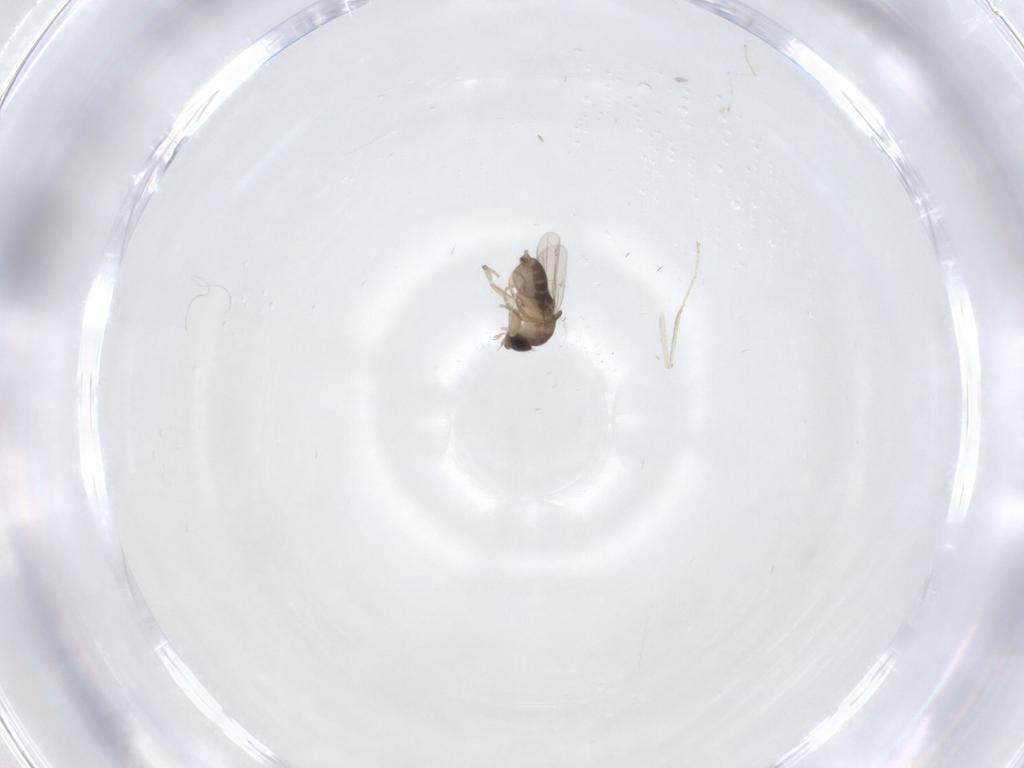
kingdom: Animalia
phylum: Arthropoda
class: Insecta
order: Diptera
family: Phoridae
